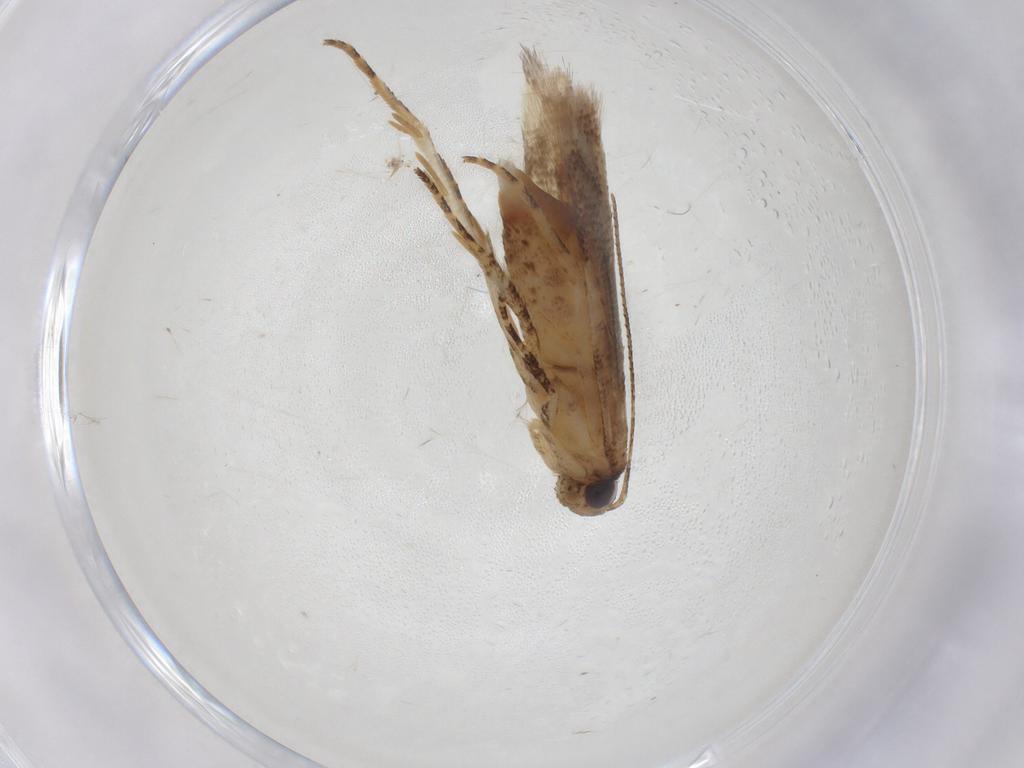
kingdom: Animalia
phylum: Arthropoda
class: Insecta
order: Lepidoptera
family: Gelechiidae
